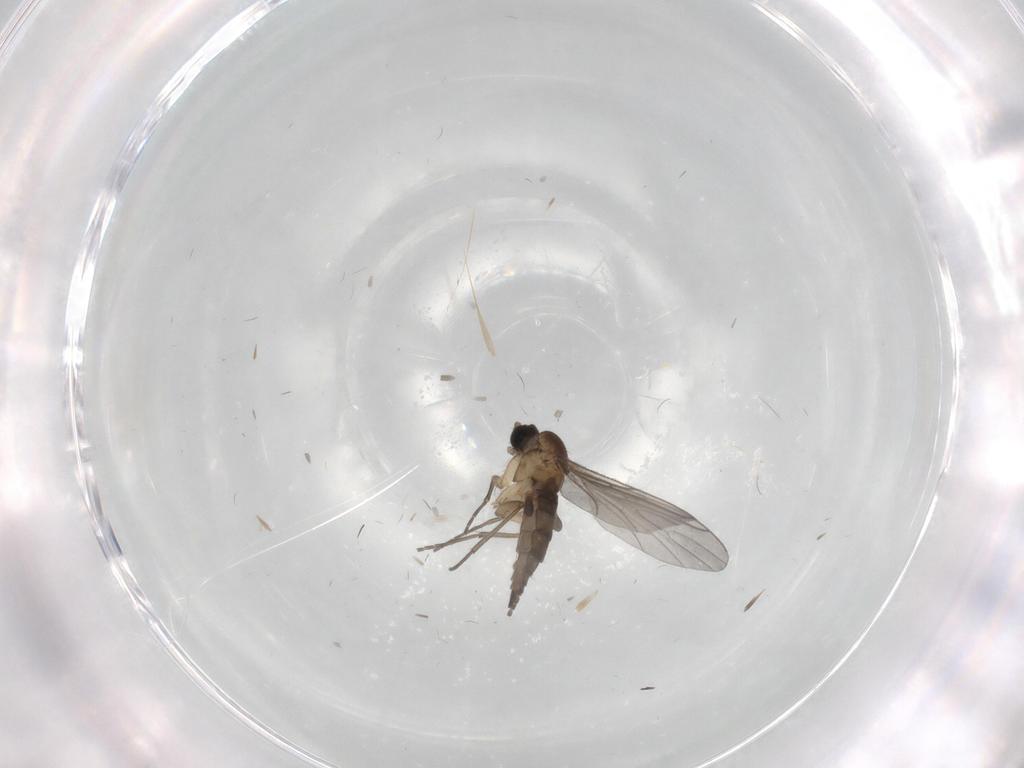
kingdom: Animalia
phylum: Arthropoda
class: Insecta
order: Diptera
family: Sciaridae
